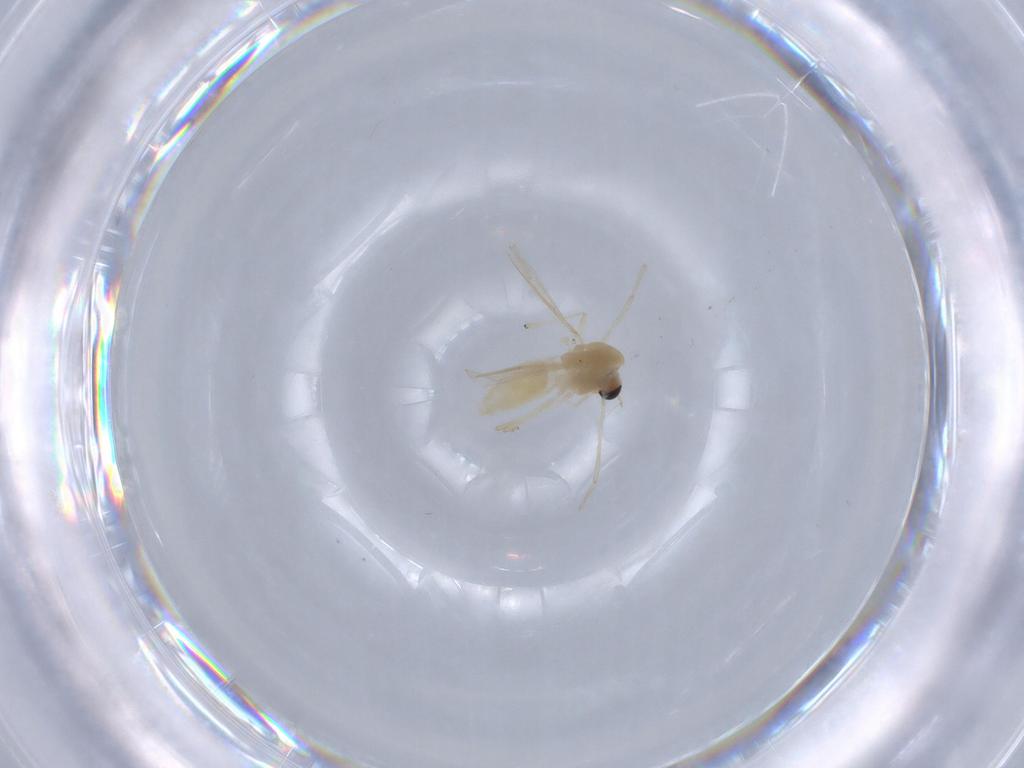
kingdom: Animalia
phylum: Arthropoda
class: Insecta
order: Diptera
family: Chironomidae
